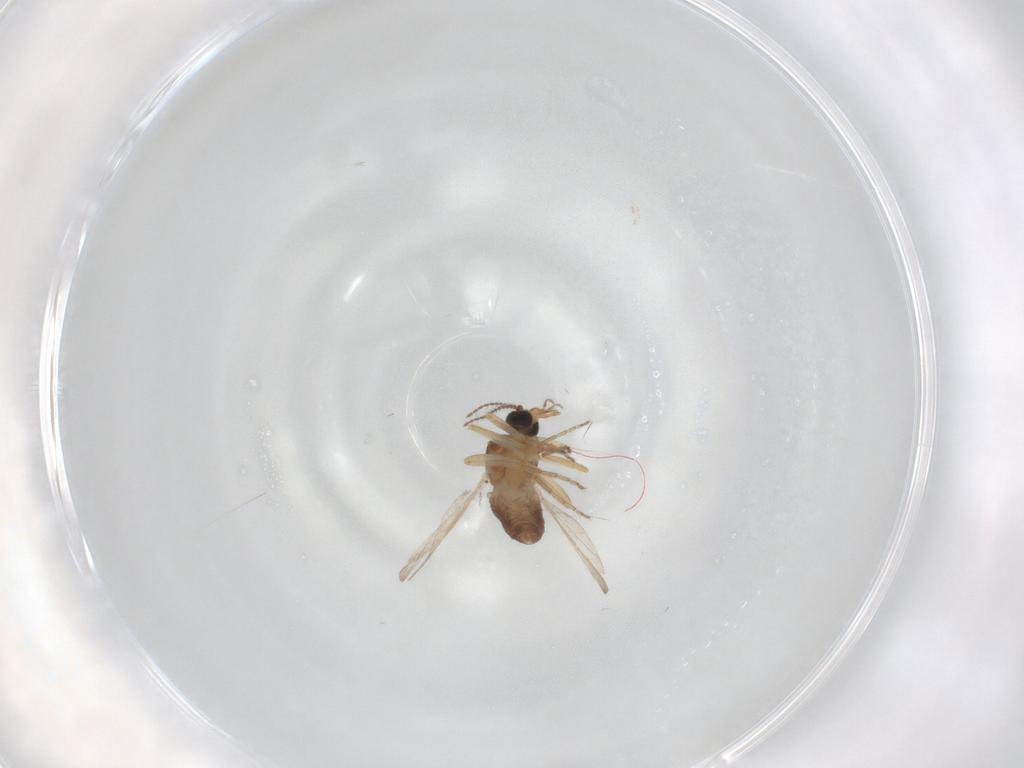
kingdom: Animalia
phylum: Arthropoda
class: Insecta
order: Diptera
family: Ceratopogonidae
